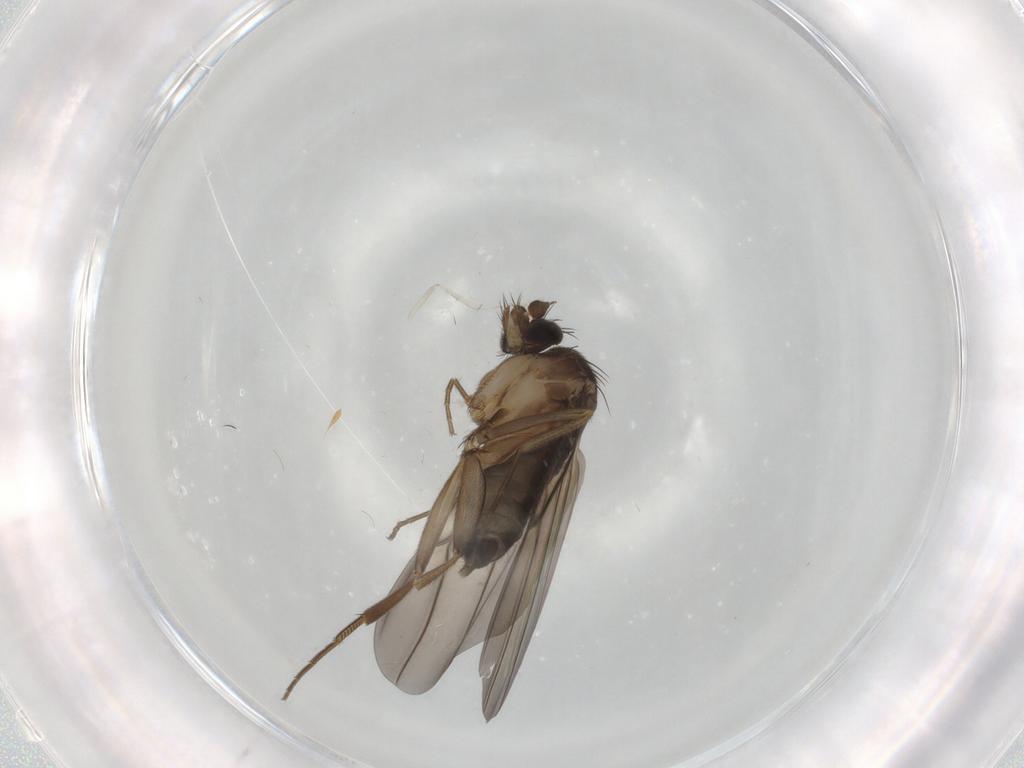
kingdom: Animalia
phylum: Arthropoda
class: Insecta
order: Diptera
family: Phoridae
